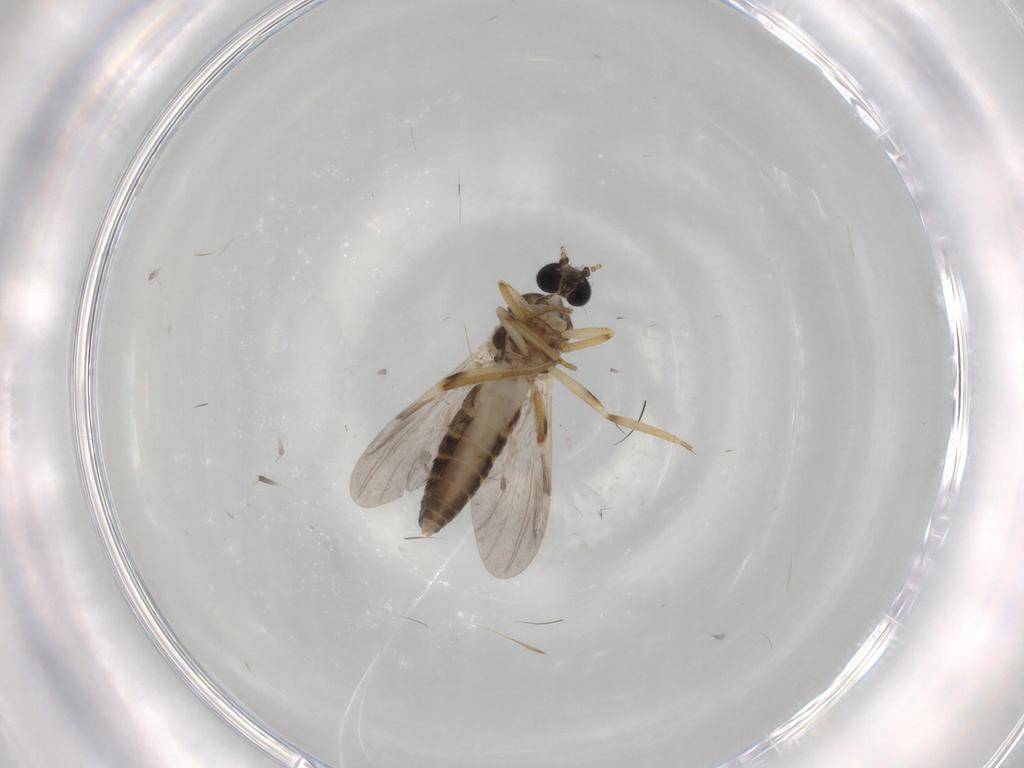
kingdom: Animalia
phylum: Arthropoda
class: Insecta
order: Diptera
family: Sciaridae
